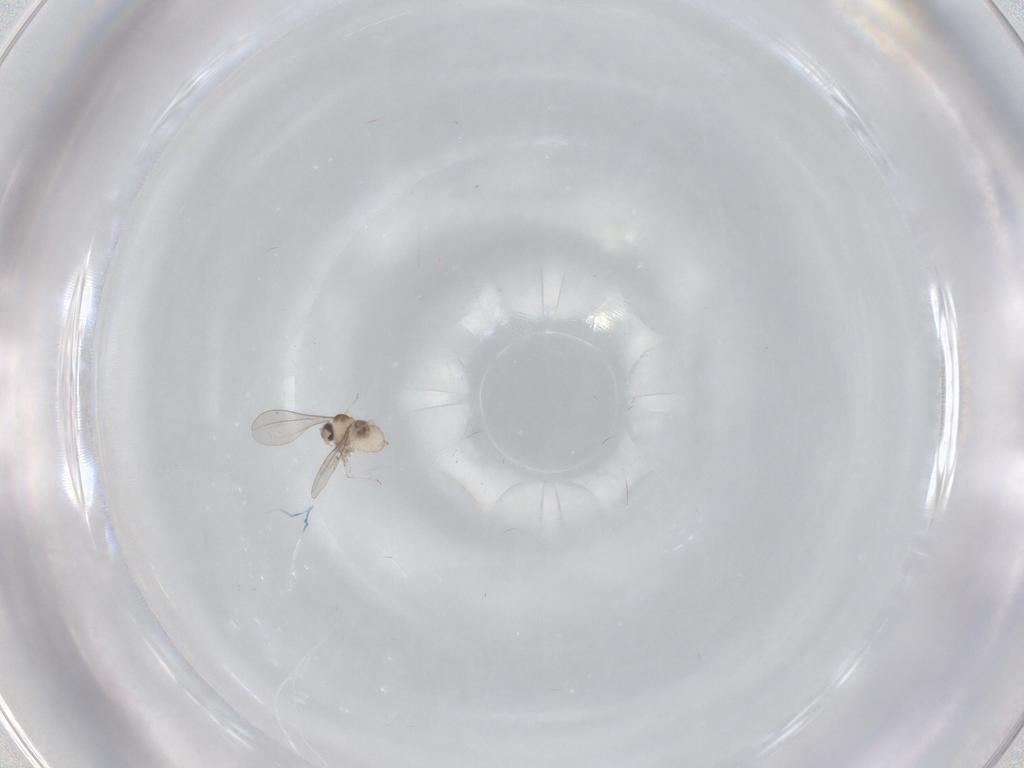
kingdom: Animalia
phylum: Arthropoda
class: Insecta
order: Diptera
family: Cecidomyiidae
